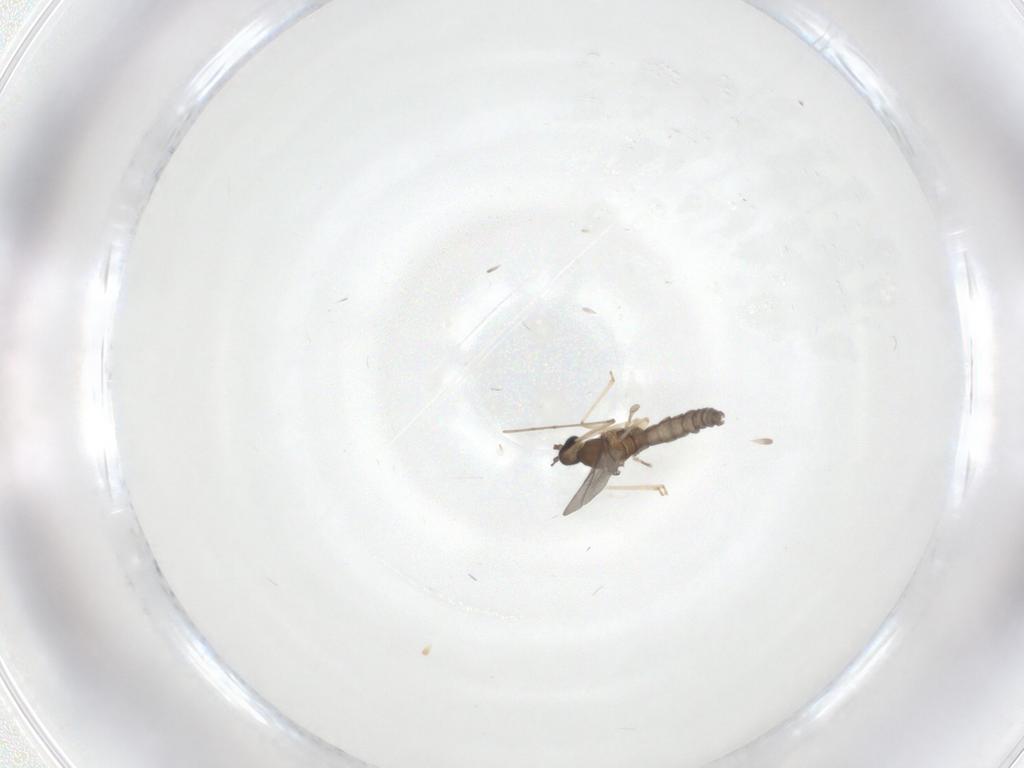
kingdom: Animalia
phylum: Arthropoda
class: Insecta
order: Diptera
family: Cecidomyiidae
